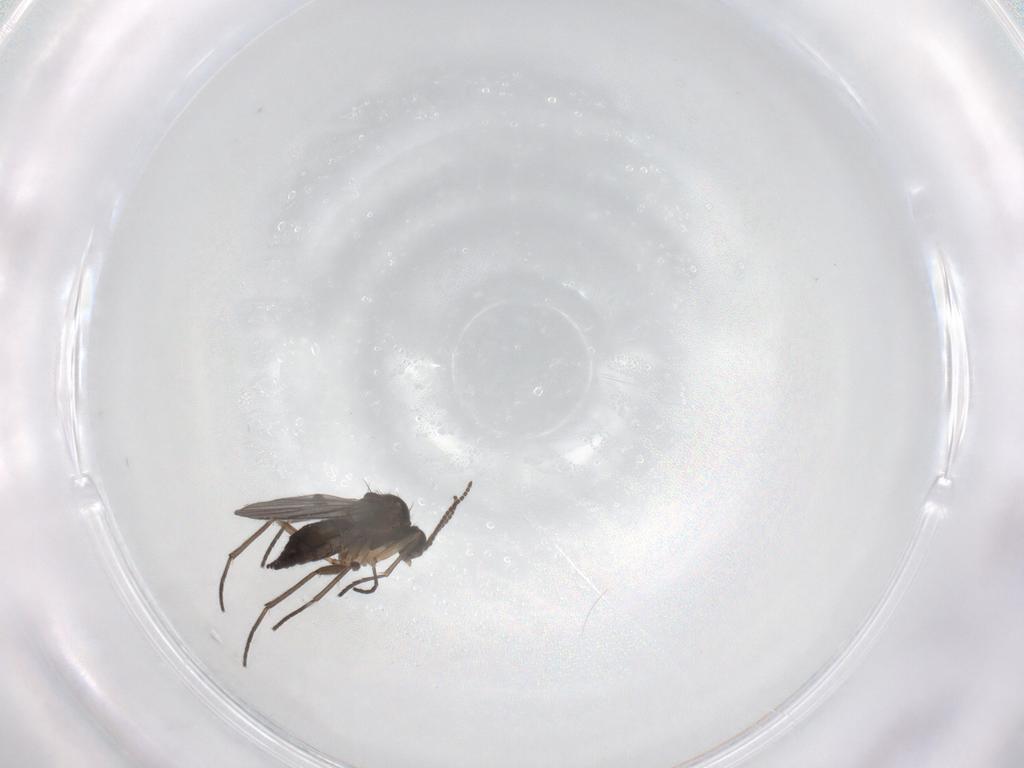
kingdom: Animalia
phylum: Arthropoda
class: Insecta
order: Diptera
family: Sciaridae
